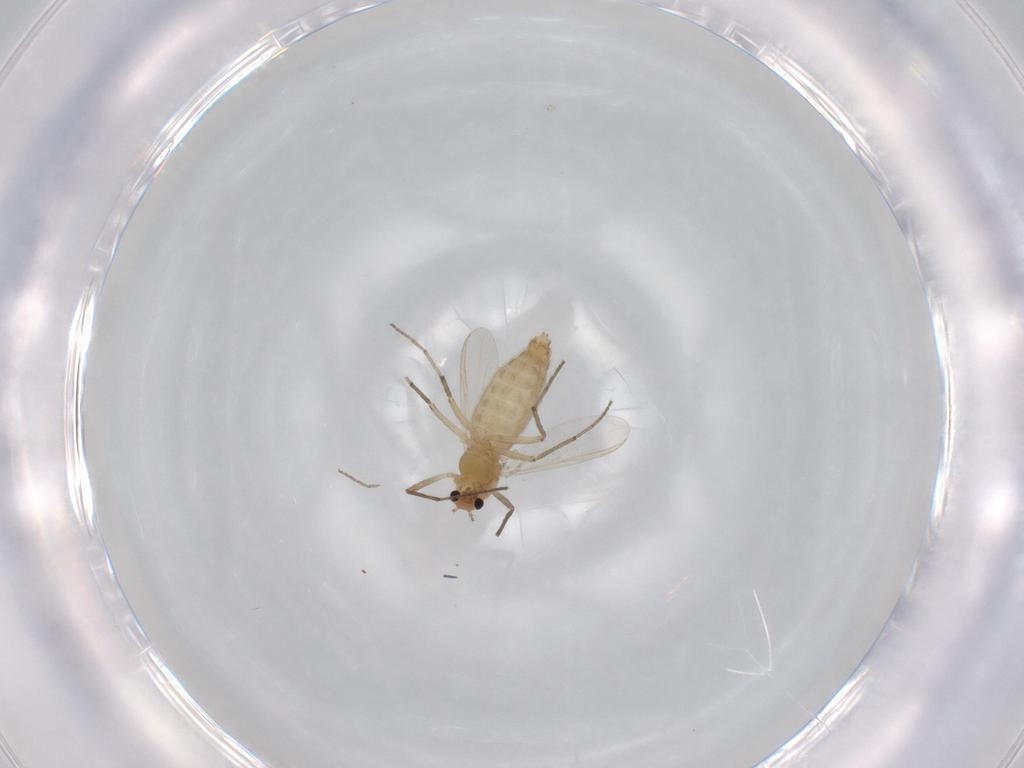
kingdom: Animalia
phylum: Arthropoda
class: Insecta
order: Diptera
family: Chironomidae
